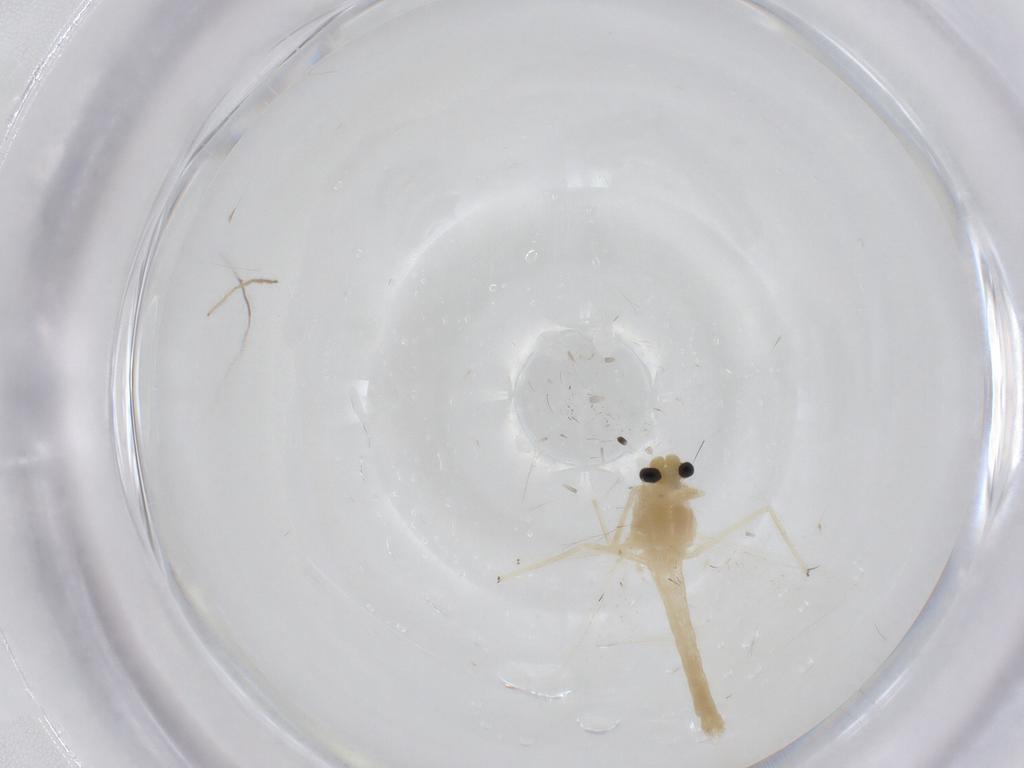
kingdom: Animalia
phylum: Arthropoda
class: Insecta
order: Diptera
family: Chironomidae
